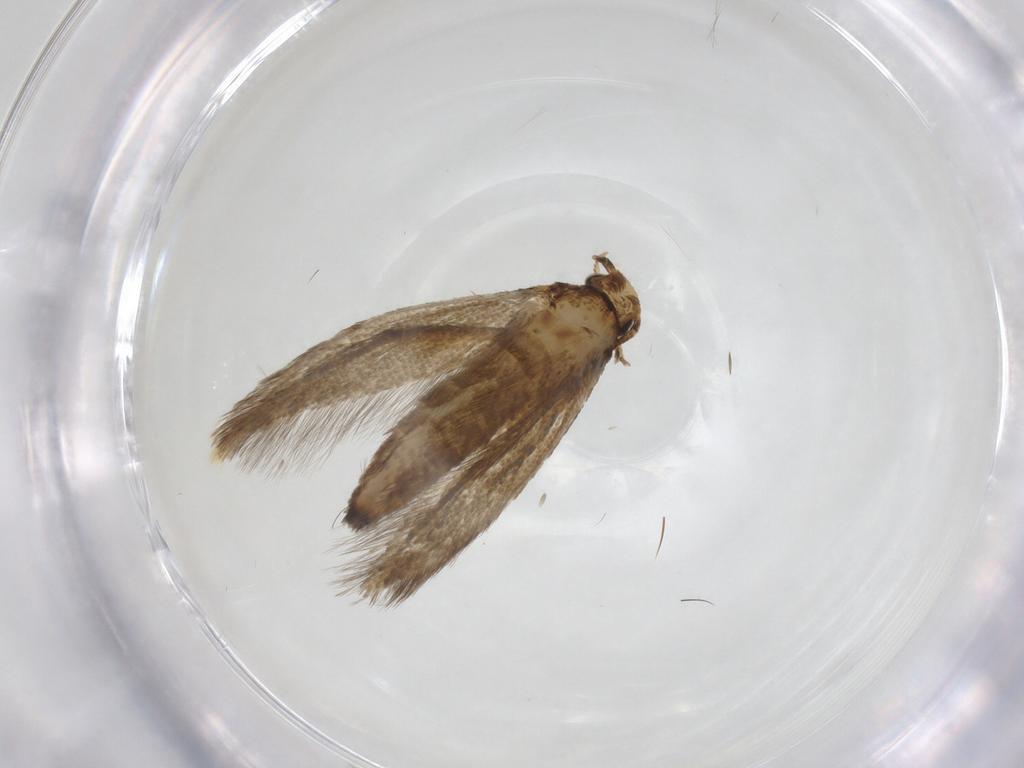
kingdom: Animalia
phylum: Arthropoda
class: Insecta
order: Lepidoptera
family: Tineidae
